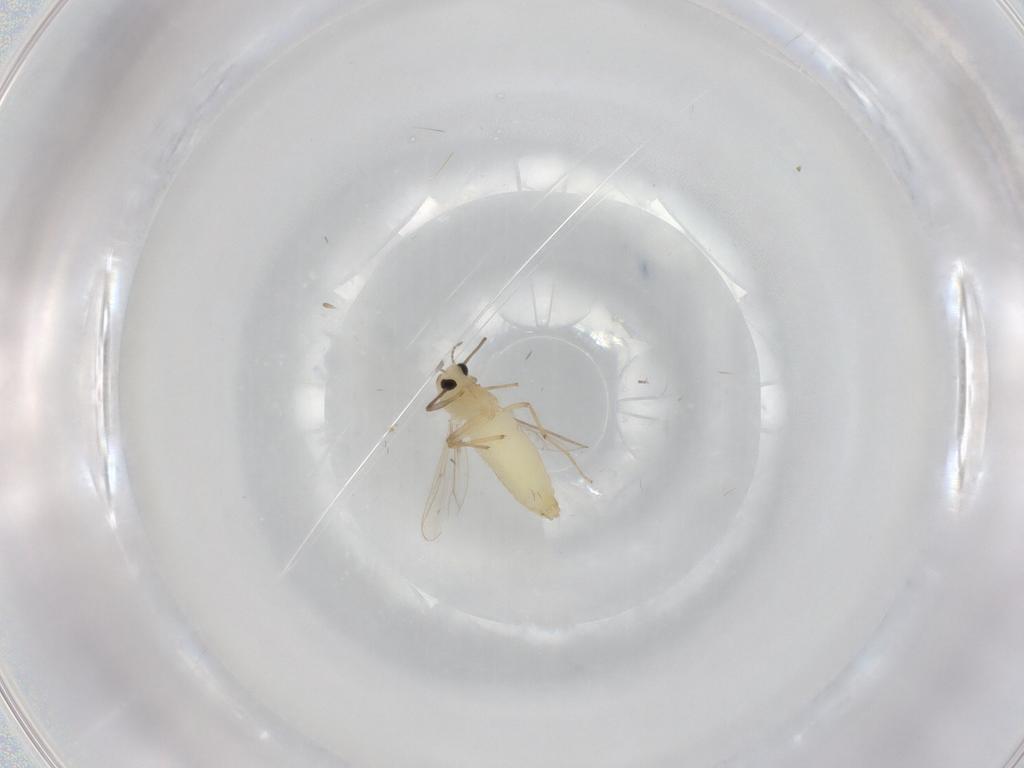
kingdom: Animalia
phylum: Arthropoda
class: Insecta
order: Diptera
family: Chironomidae
